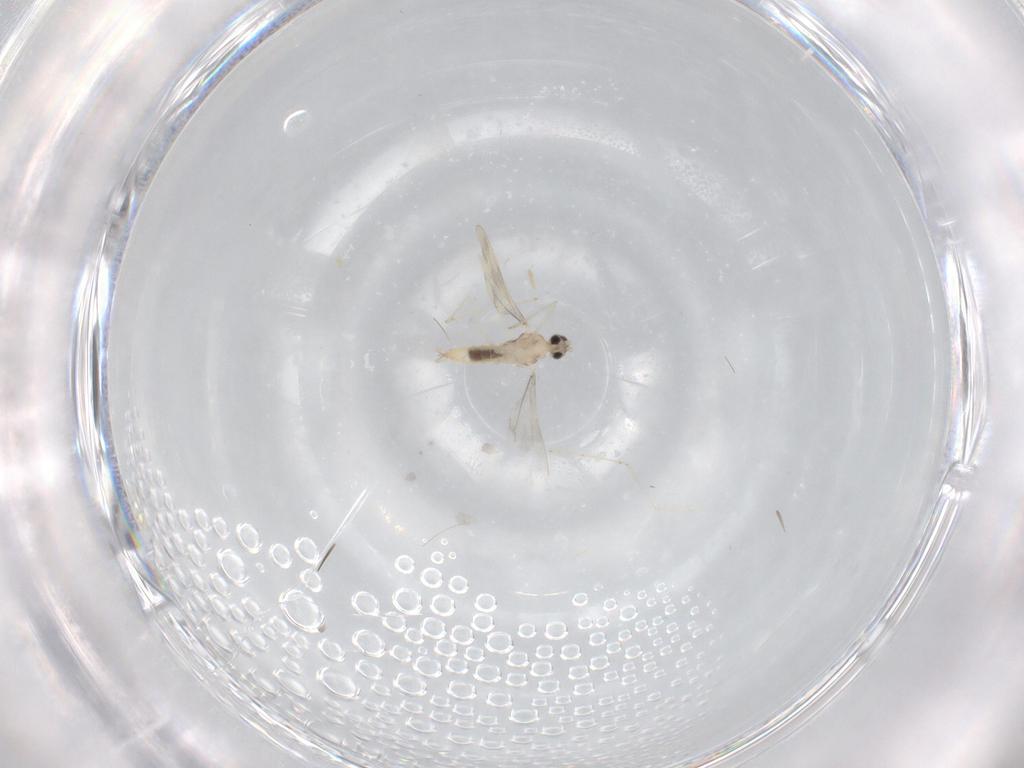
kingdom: Animalia
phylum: Arthropoda
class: Insecta
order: Diptera
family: Cecidomyiidae
